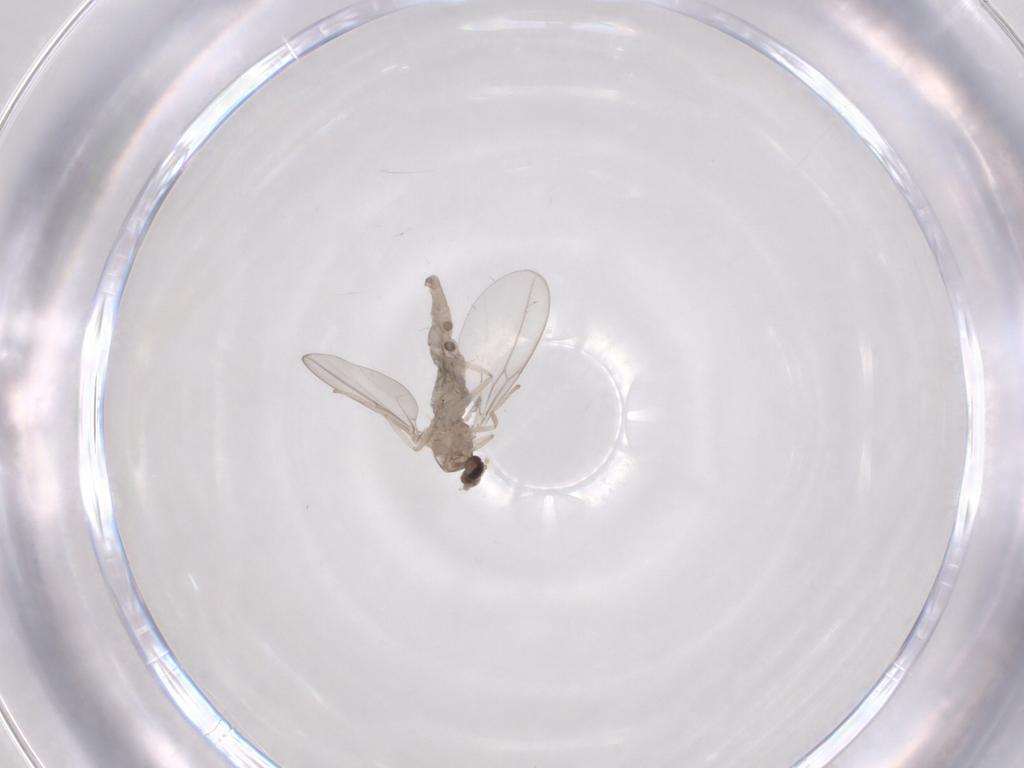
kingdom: Animalia
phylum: Arthropoda
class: Insecta
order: Diptera
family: Cecidomyiidae
